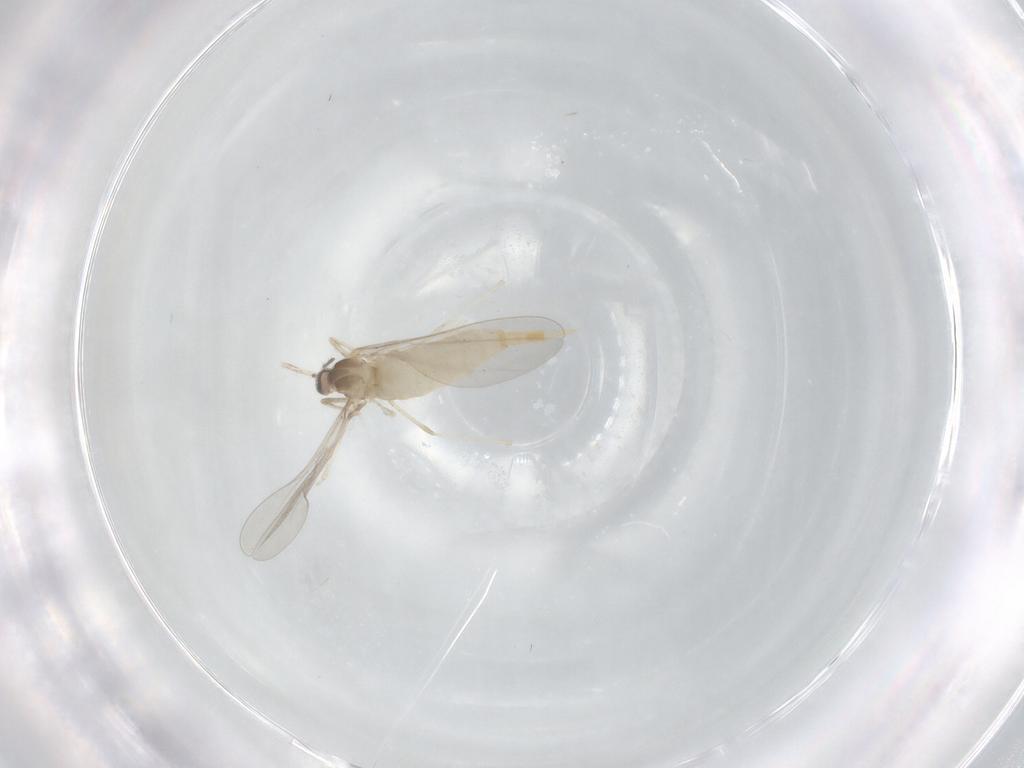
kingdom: Animalia
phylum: Arthropoda
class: Insecta
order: Diptera
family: Cecidomyiidae
